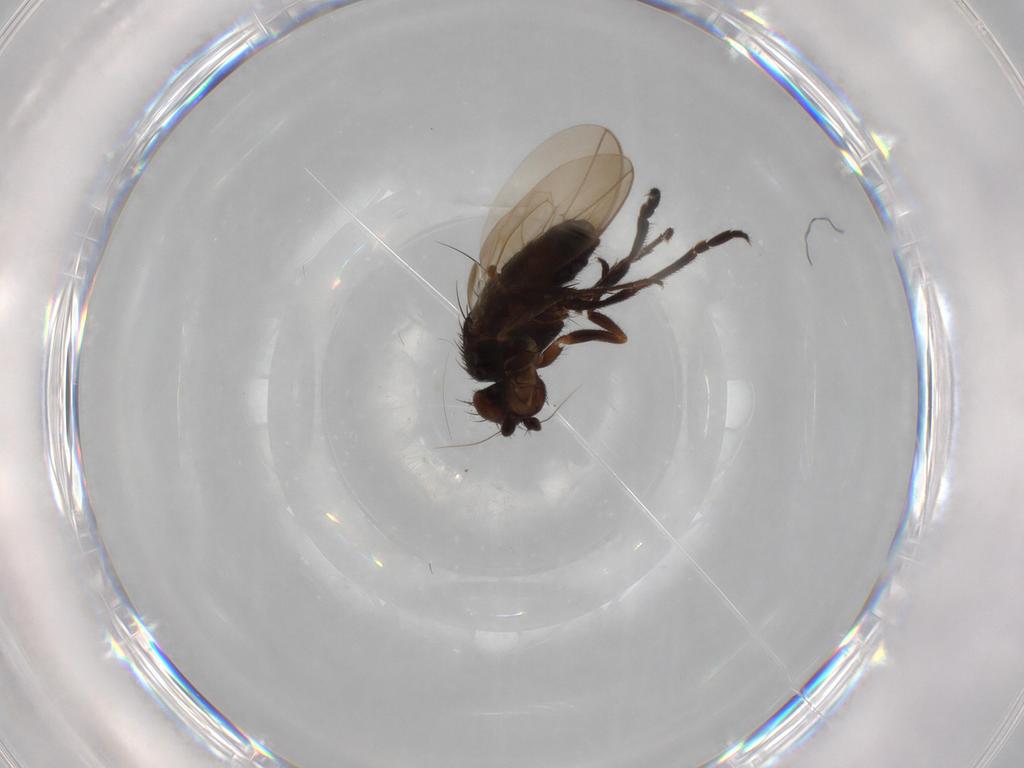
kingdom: Animalia
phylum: Arthropoda
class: Insecta
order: Diptera
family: Sphaeroceridae
